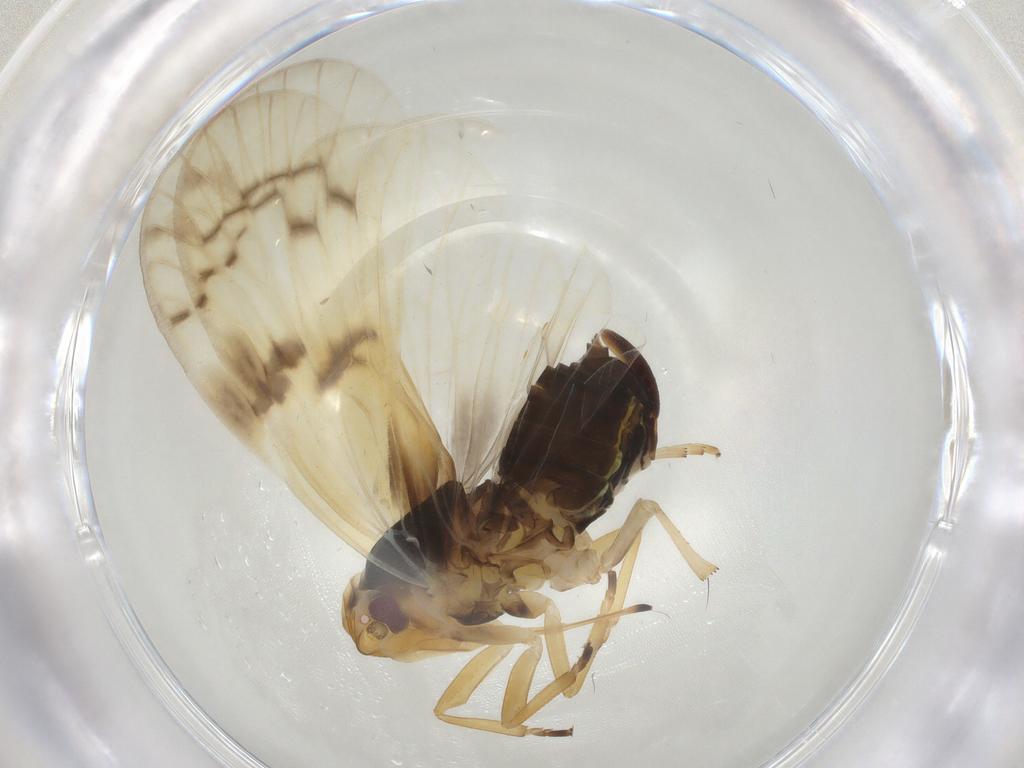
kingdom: Animalia
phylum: Arthropoda
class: Insecta
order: Hemiptera
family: Cixiidae
